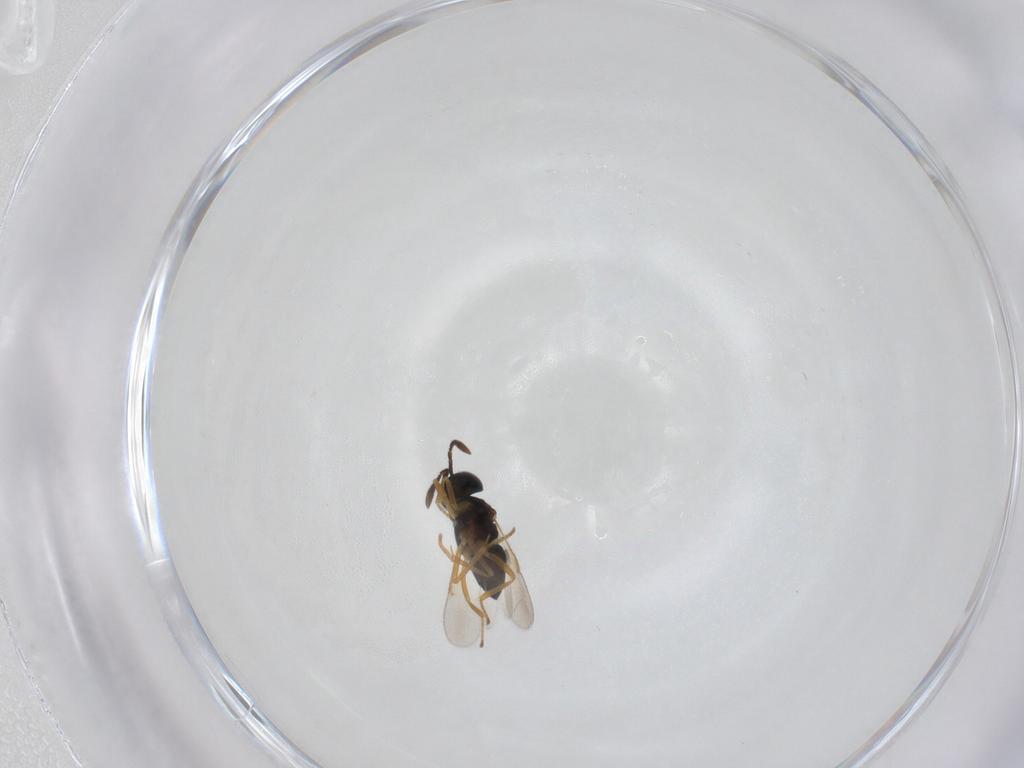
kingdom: Animalia
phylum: Arthropoda
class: Insecta
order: Hymenoptera
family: Encyrtidae
